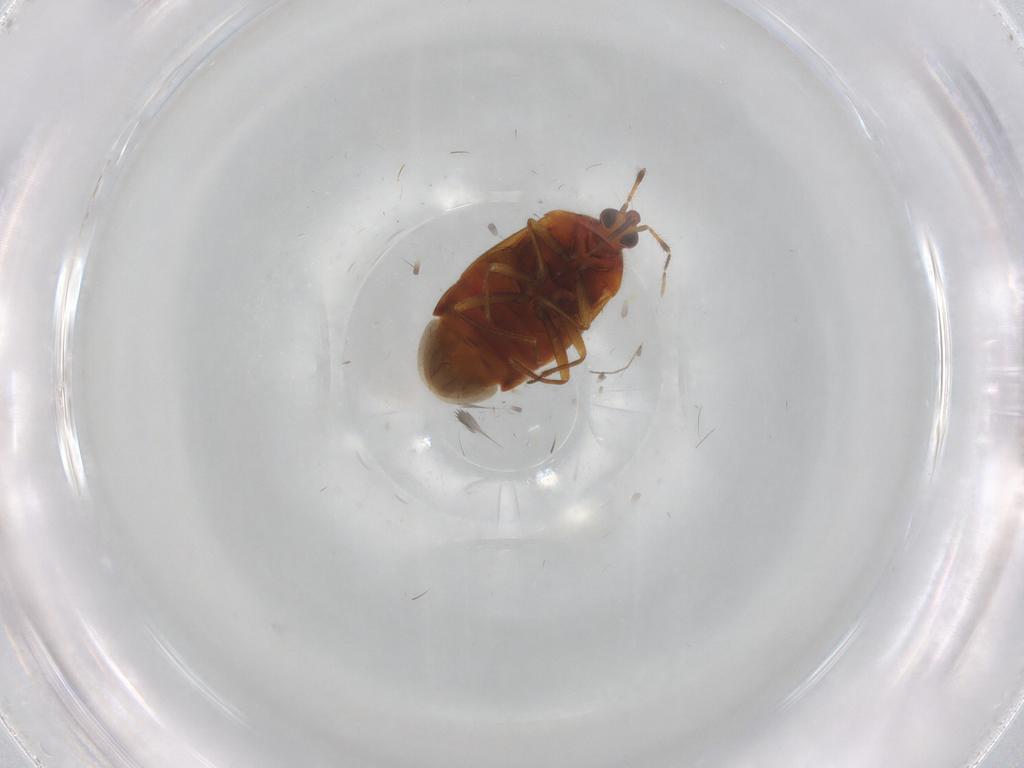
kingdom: Animalia
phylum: Arthropoda
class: Insecta
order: Hemiptera
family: Anthocoridae
